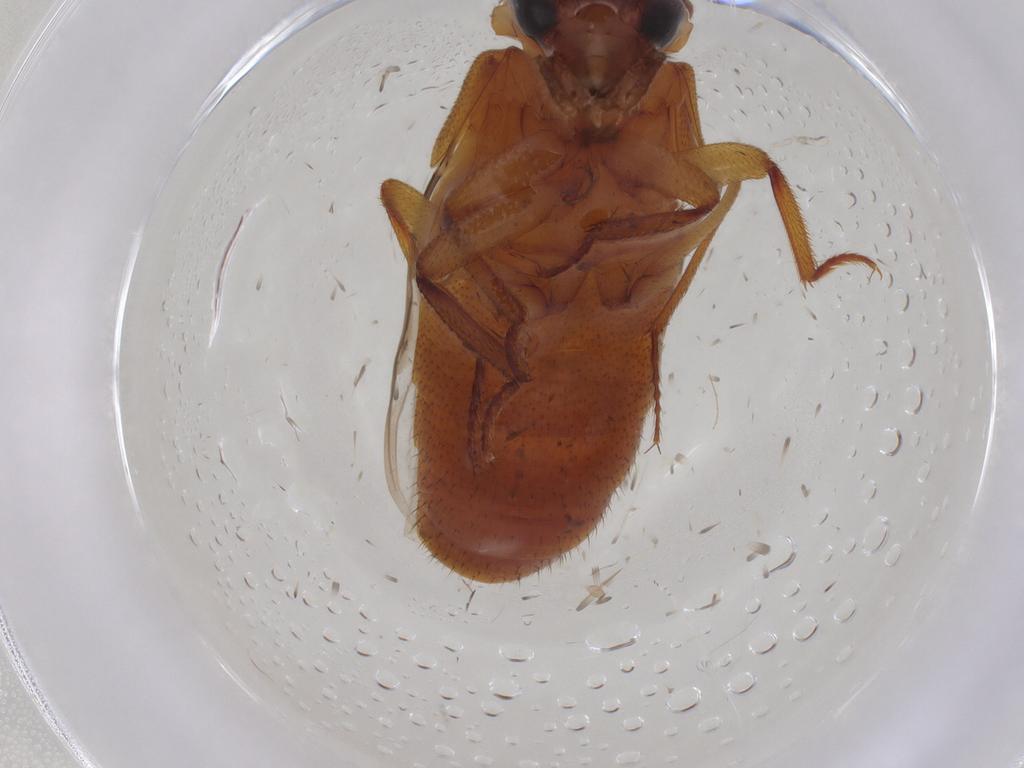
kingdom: Animalia
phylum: Arthropoda
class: Insecta
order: Coleoptera
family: Staphylinidae
